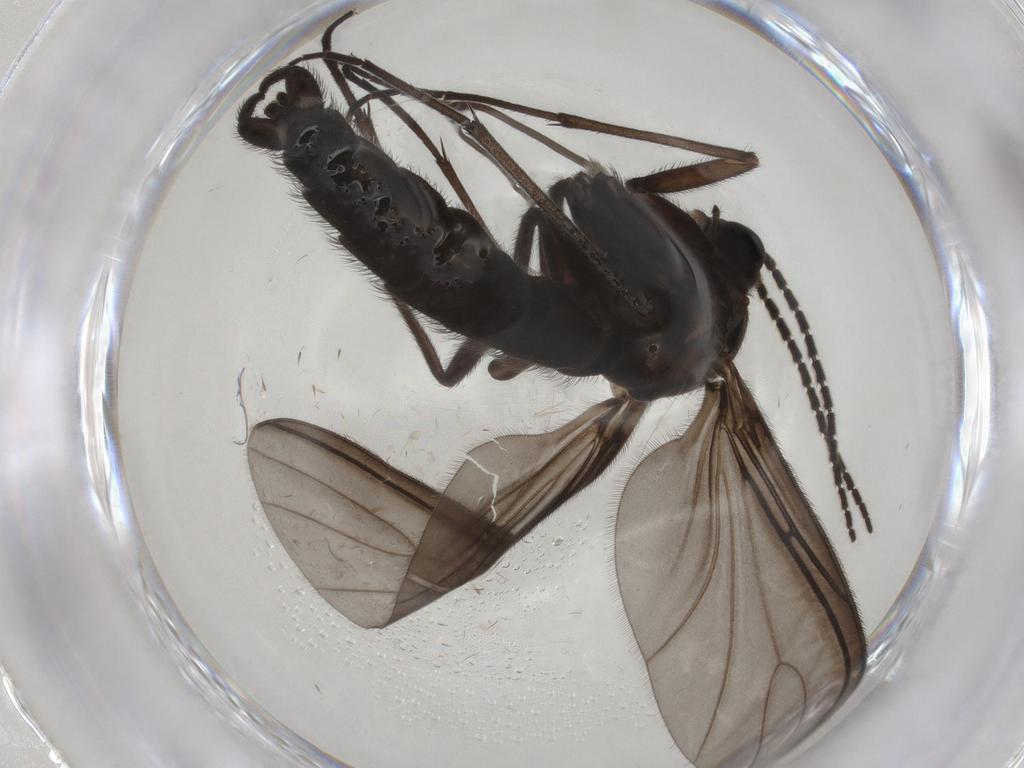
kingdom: Animalia
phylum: Arthropoda
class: Insecta
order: Diptera
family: Sciaridae
